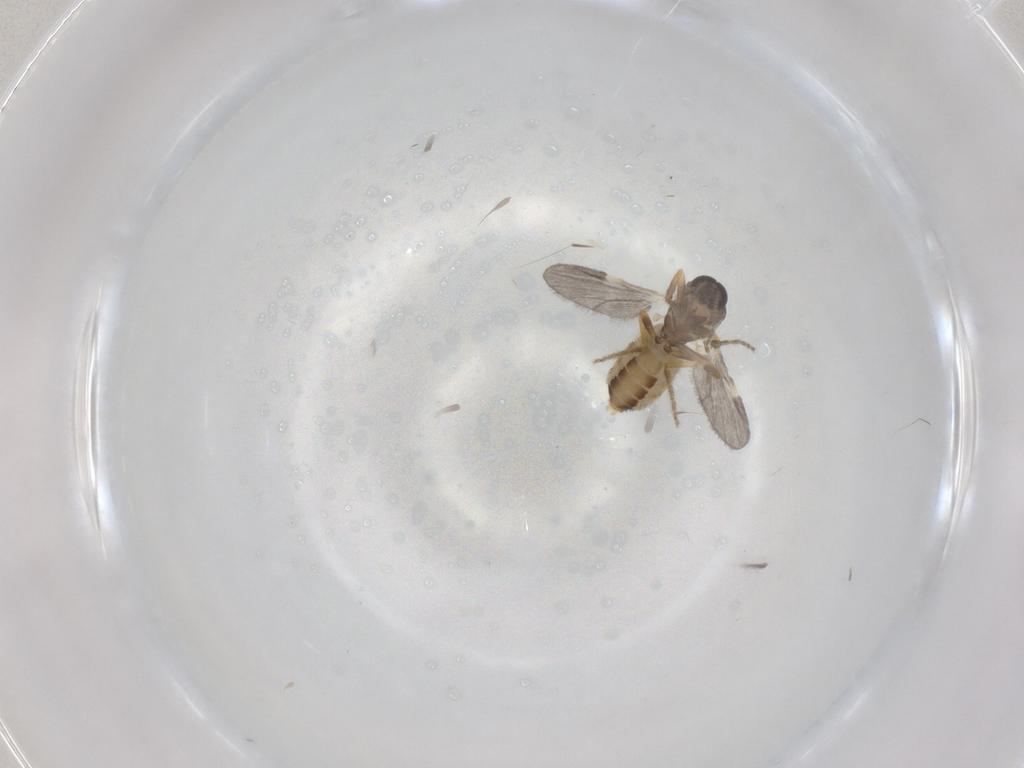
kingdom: Animalia
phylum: Arthropoda
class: Insecta
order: Diptera
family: Ceratopogonidae
